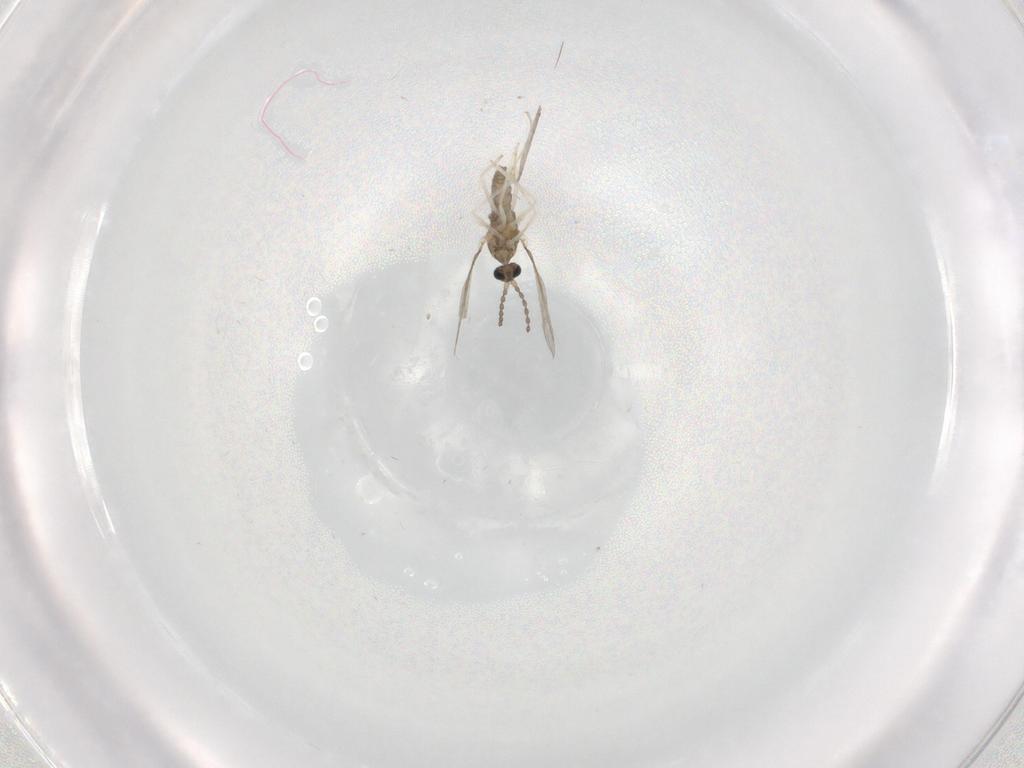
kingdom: Animalia
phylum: Arthropoda
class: Insecta
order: Diptera
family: Cecidomyiidae
